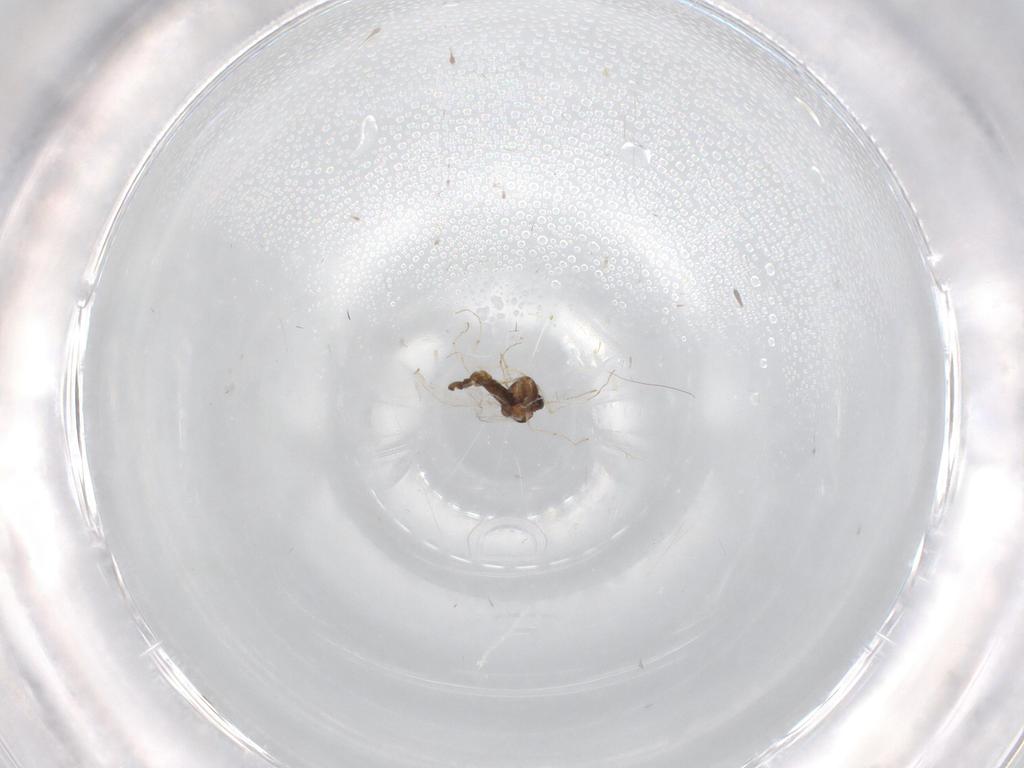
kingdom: Animalia
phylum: Arthropoda
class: Insecta
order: Diptera
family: Chironomidae
